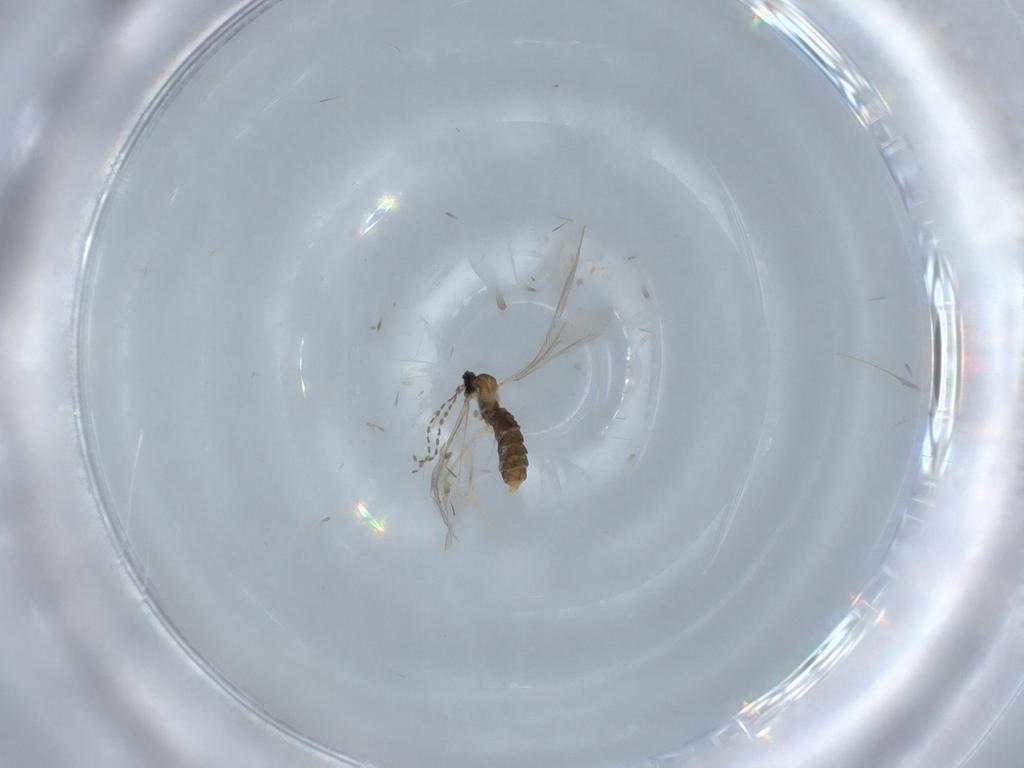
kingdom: Animalia
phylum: Arthropoda
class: Insecta
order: Diptera
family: Cecidomyiidae
